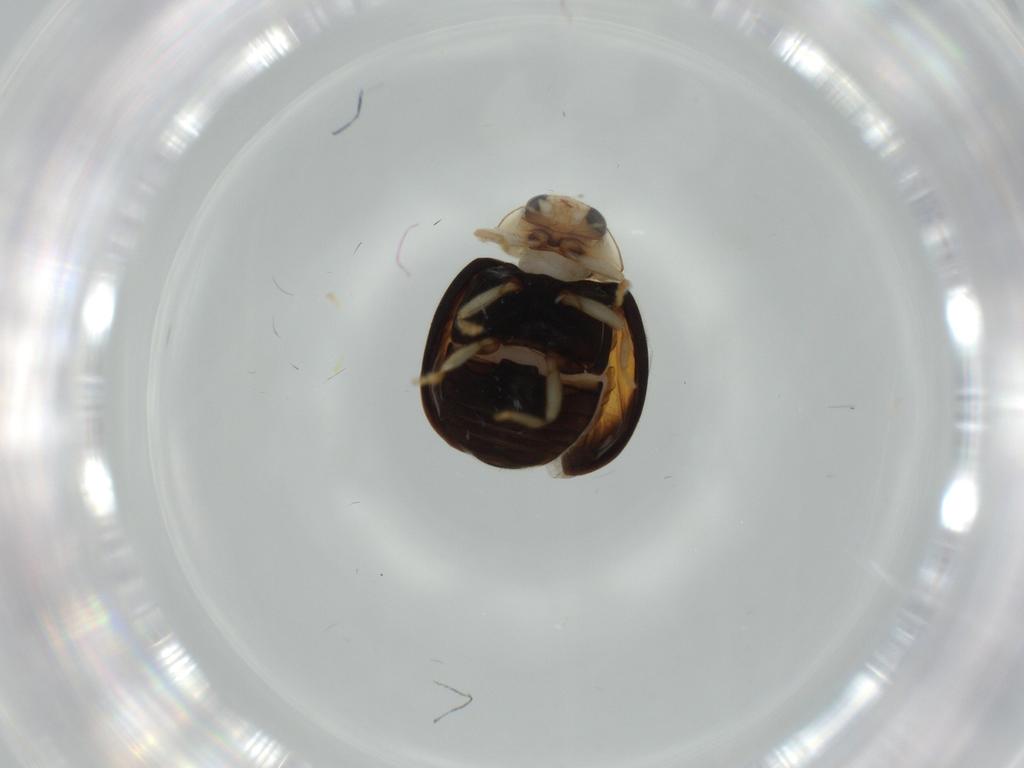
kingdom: Animalia
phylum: Arthropoda
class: Insecta
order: Coleoptera
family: Coccinellidae
